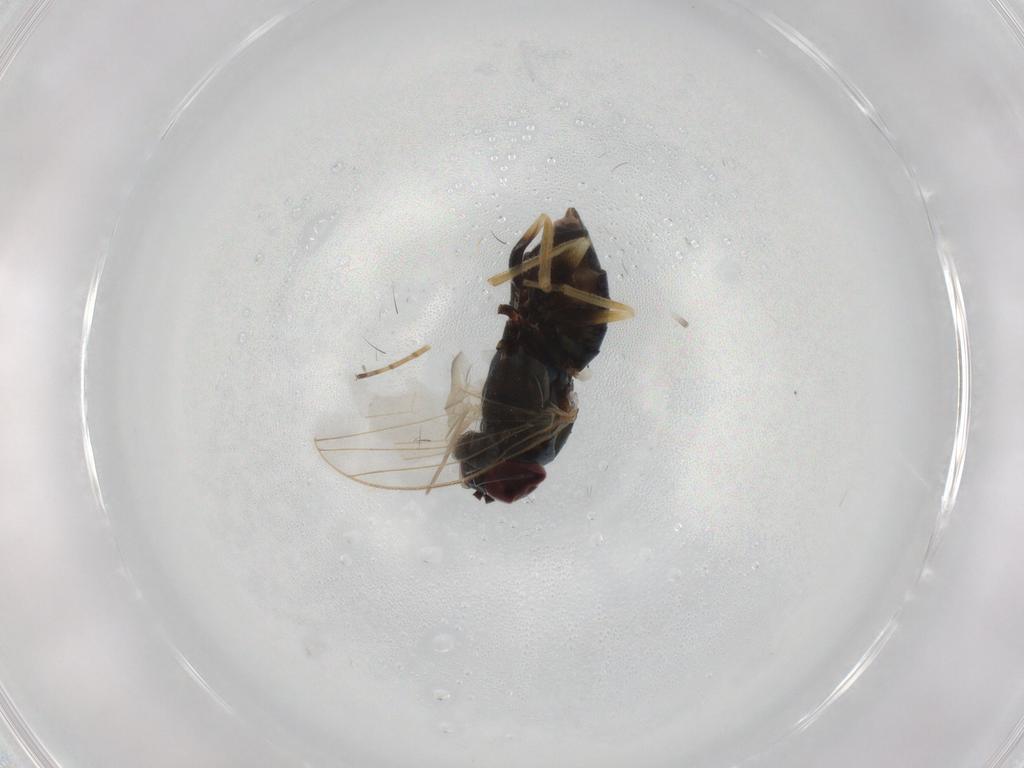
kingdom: Animalia
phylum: Arthropoda
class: Insecta
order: Diptera
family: Dolichopodidae
